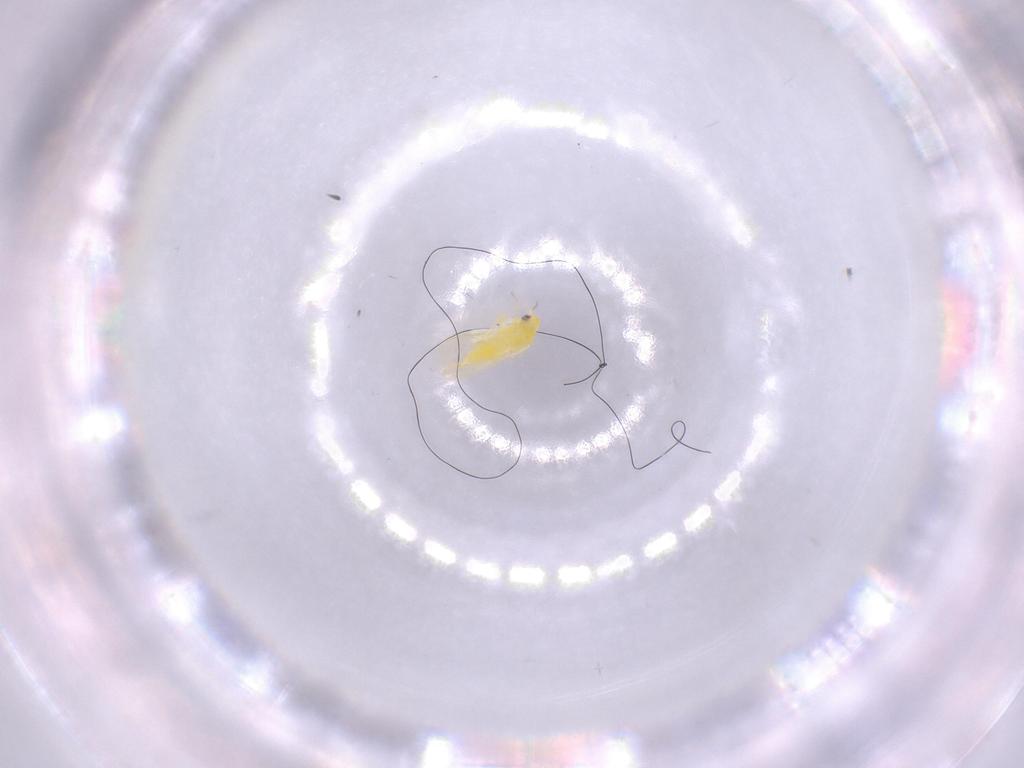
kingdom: Animalia
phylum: Arthropoda
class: Insecta
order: Hemiptera
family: Aleyrodidae
